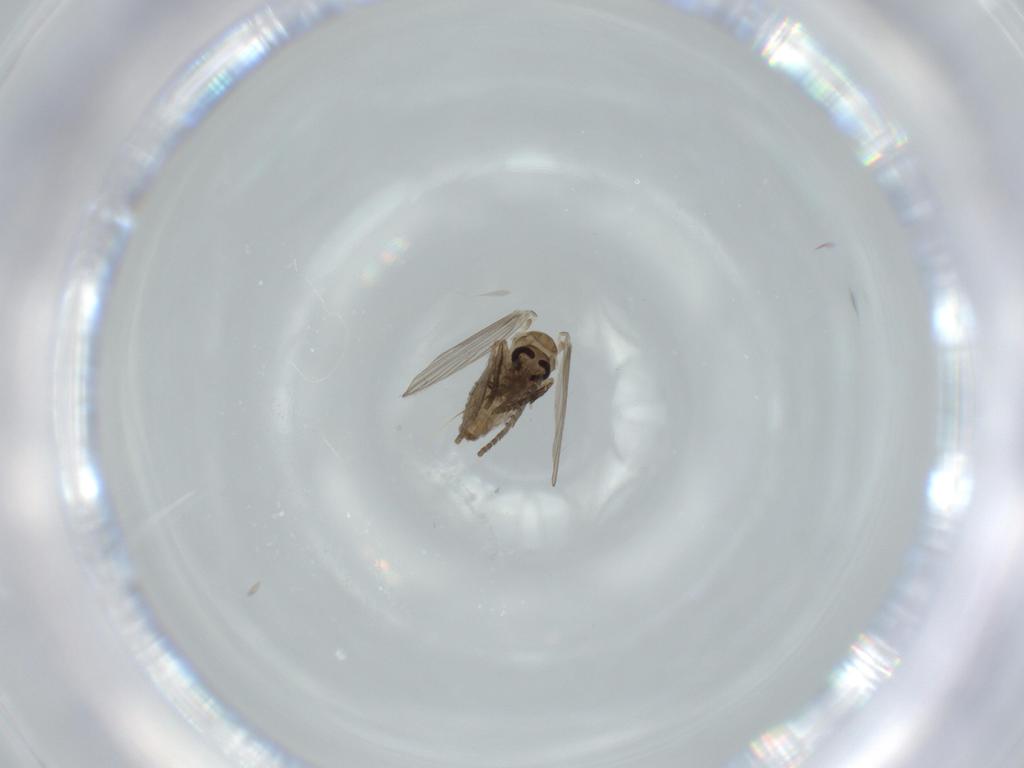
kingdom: Animalia
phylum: Arthropoda
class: Insecta
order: Diptera
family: Psychodidae
